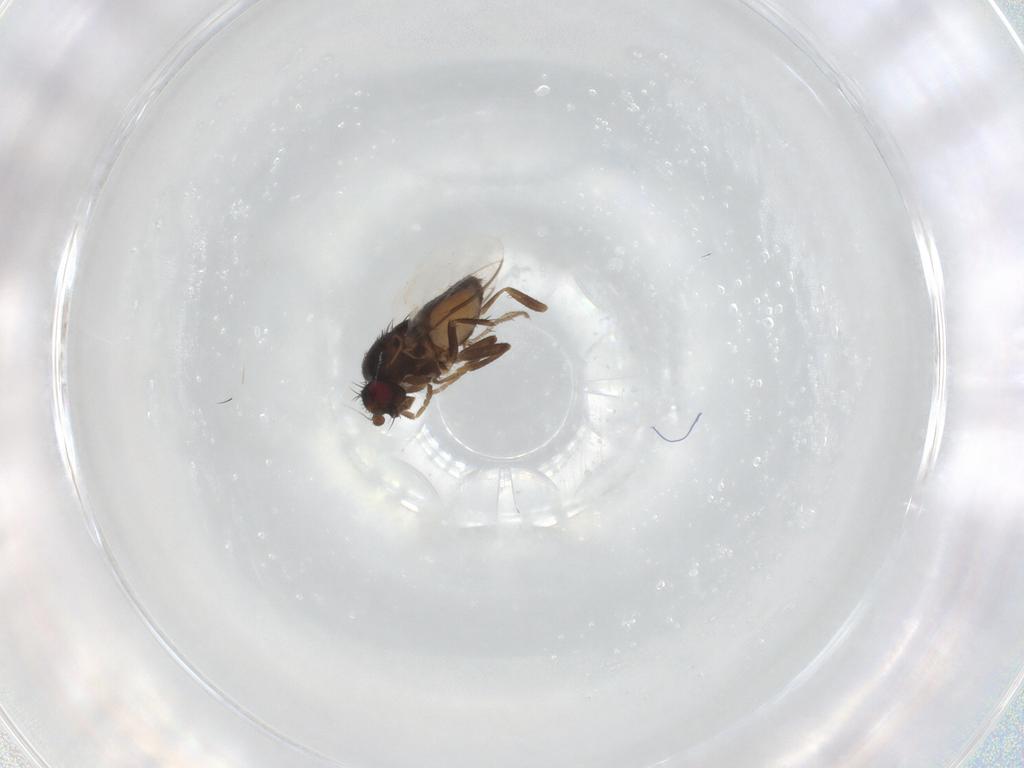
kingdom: Animalia
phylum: Arthropoda
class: Insecta
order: Diptera
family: Sphaeroceridae
